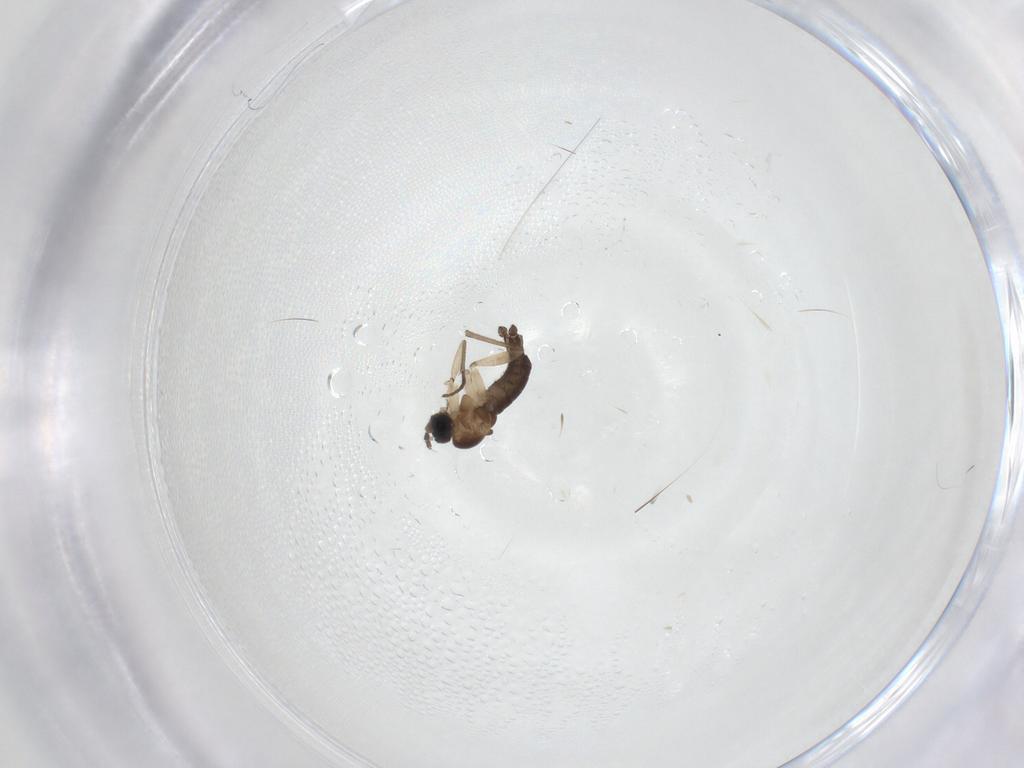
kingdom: Animalia
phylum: Arthropoda
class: Insecta
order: Diptera
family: Sciaridae
